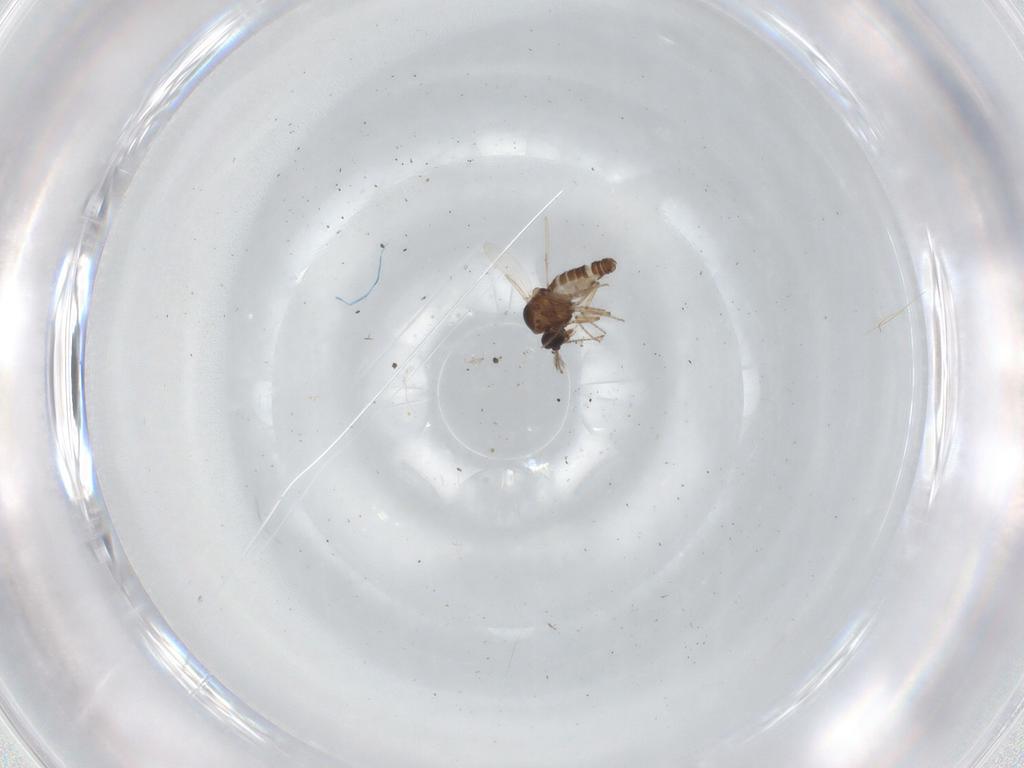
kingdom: Animalia
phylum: Arthropoda
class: Insecta
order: Diptera
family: Ceratopogonidae
